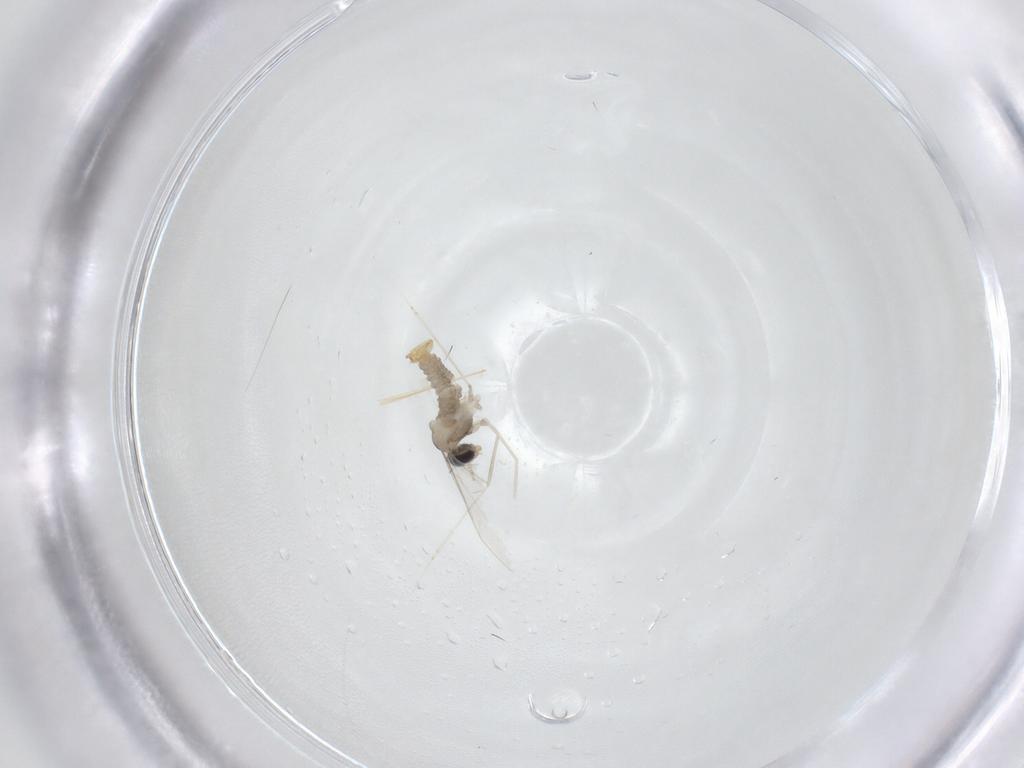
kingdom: Animalia
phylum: Arthropoda
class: Insecta
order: Diptera
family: Cecidomyiidae
